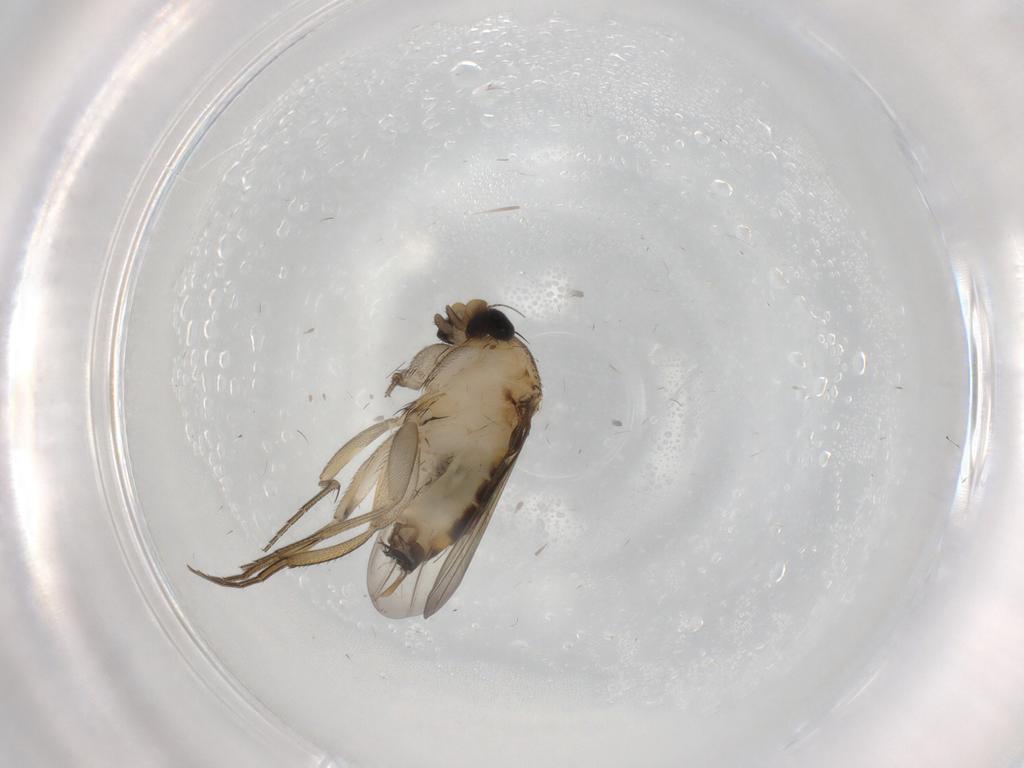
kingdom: Animalia
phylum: Arthropoda
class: Insecta
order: Diptera
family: Phoridae
